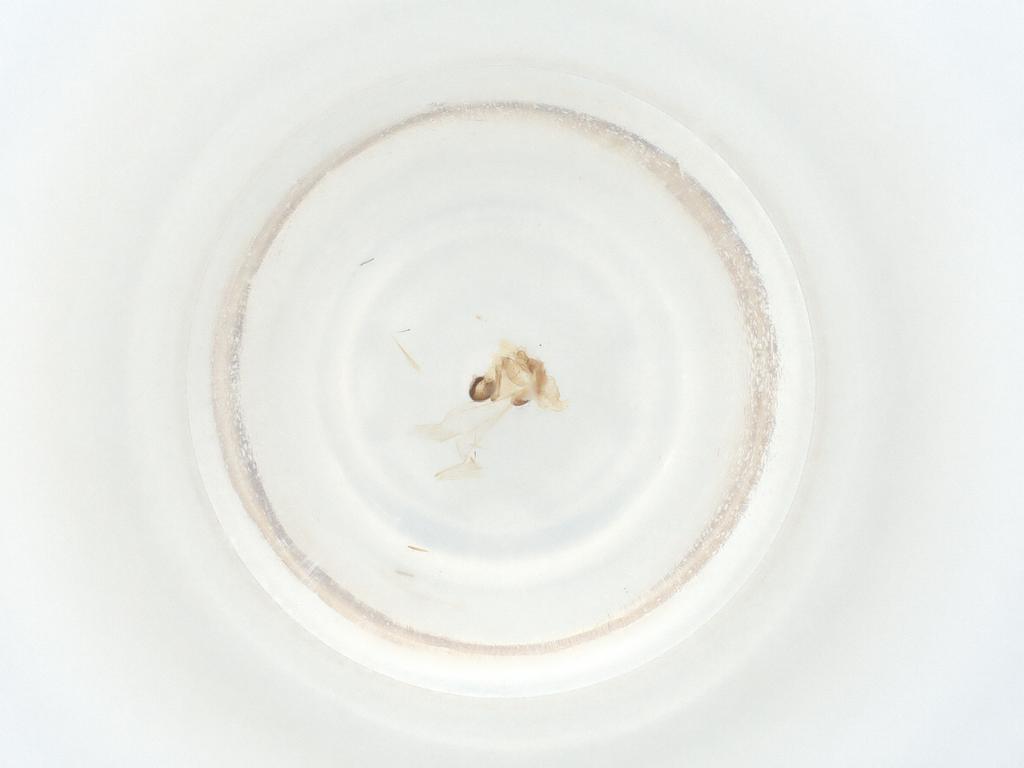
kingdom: Animalia
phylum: Arthropoda
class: Insecta
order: Diptera
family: Cecidomyiidae
